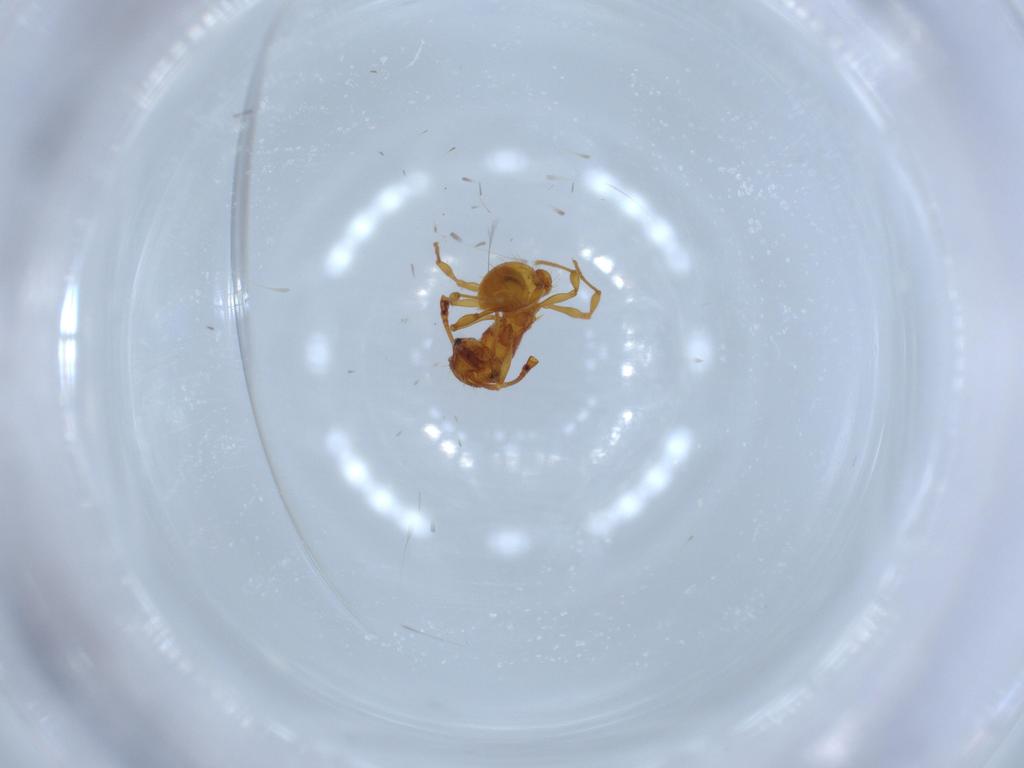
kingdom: Animalia
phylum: Arthropoda
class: Insecta
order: Hymenoptera
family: Formicidae
